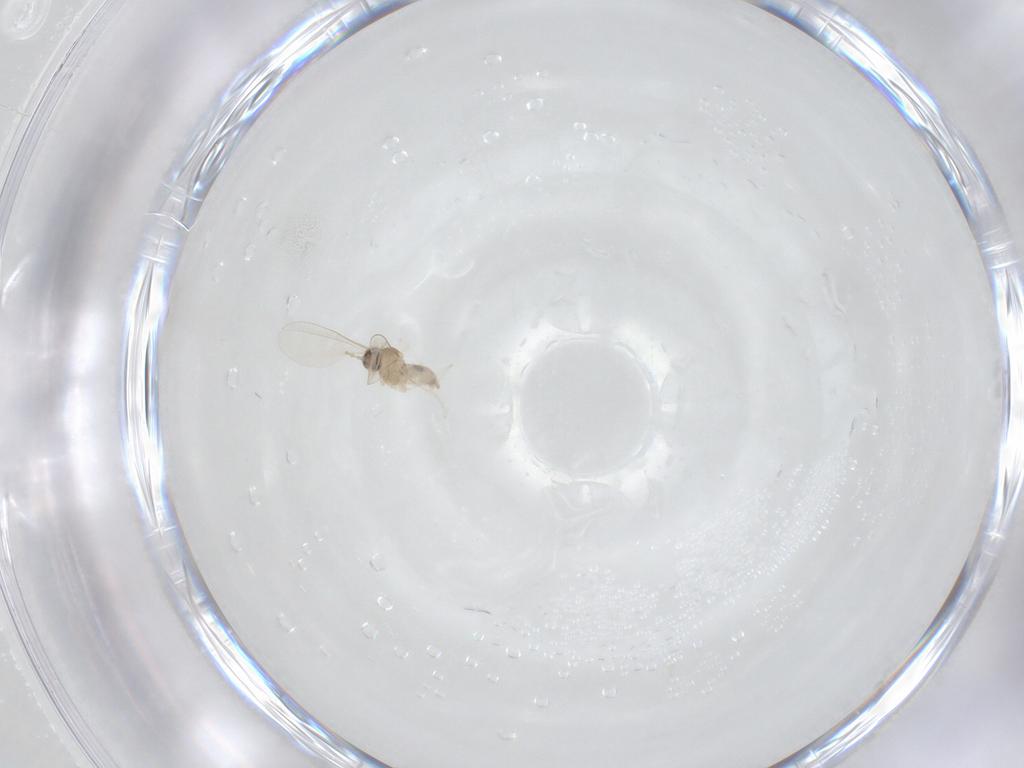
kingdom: Animalia
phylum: Arthropoda
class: Insecta
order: Diptera
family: Cecidomyiidae
